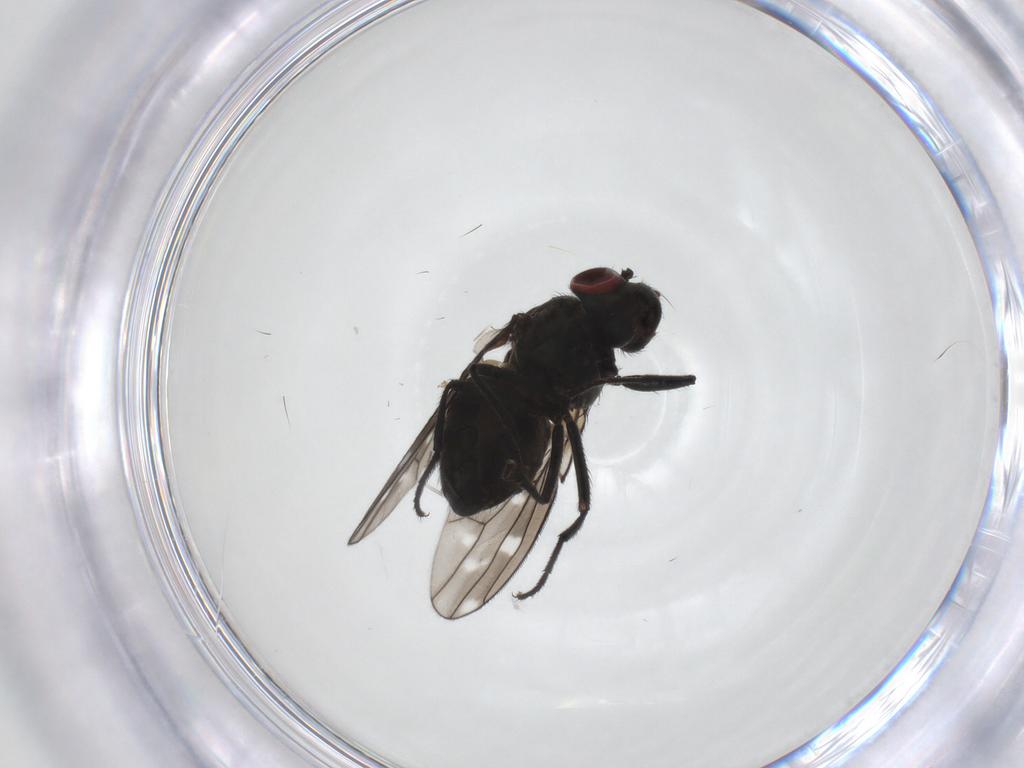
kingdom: Animalia
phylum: Arthropoda
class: Insecta
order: Diptera
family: Ephydridae
